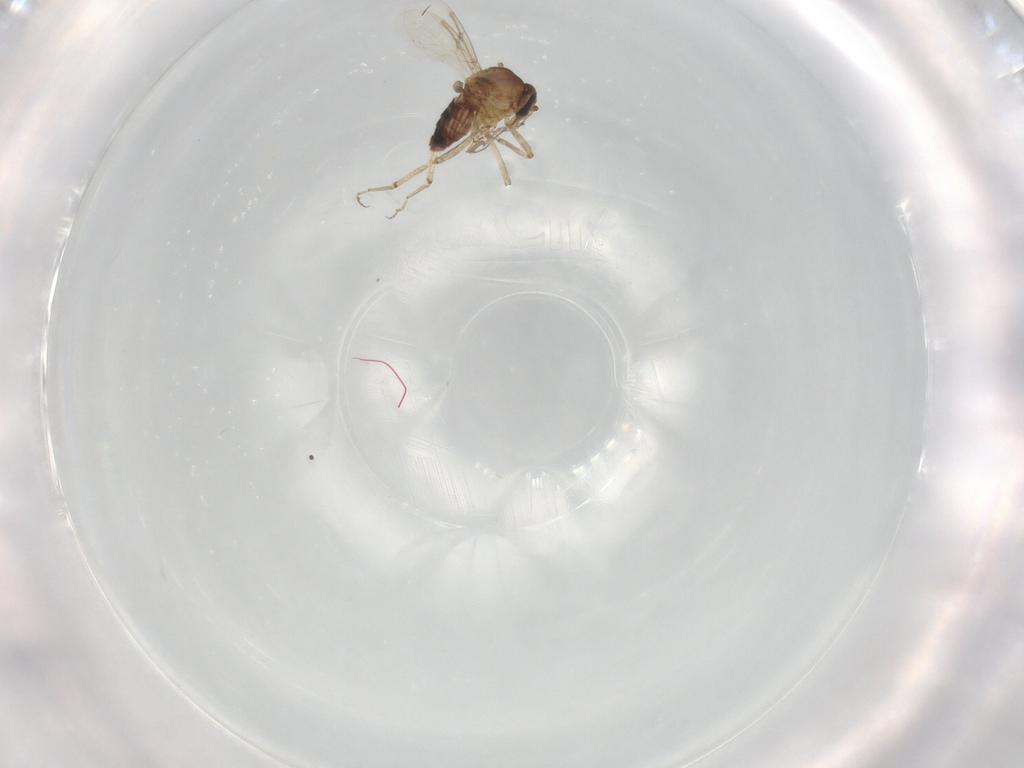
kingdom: Animalia
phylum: Arthropoda
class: Insecta
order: Diptera
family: Ceratopogonidae
